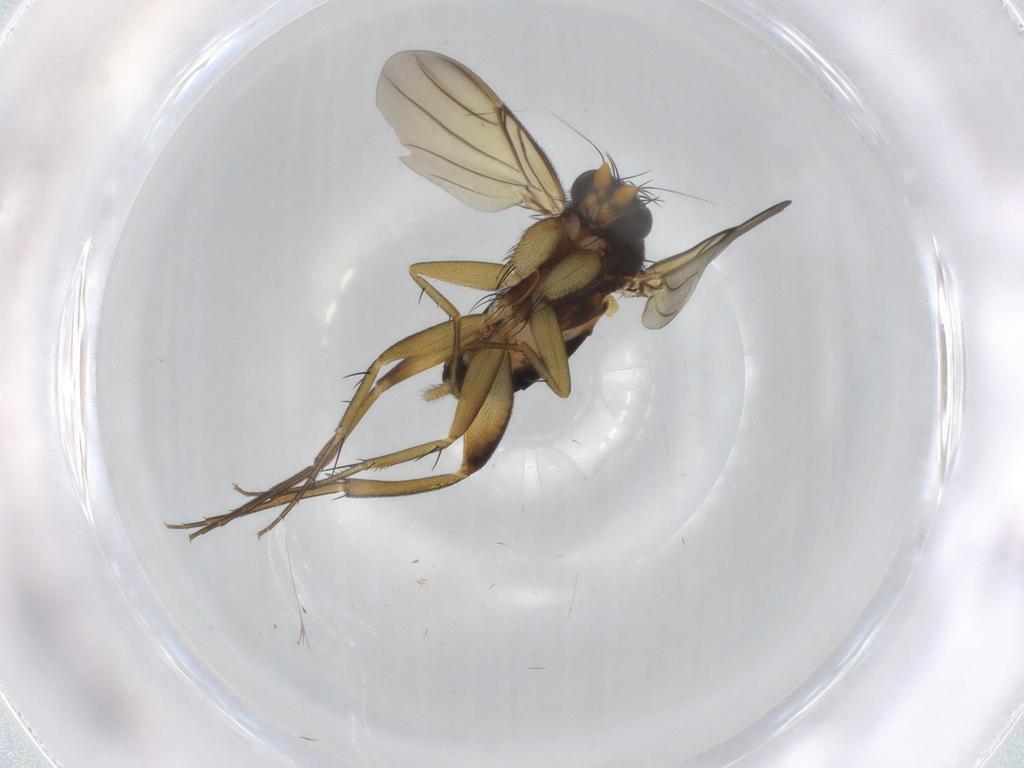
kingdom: Animalia
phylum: Arthropoda
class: Insecta
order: Diptera
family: Phoridae
